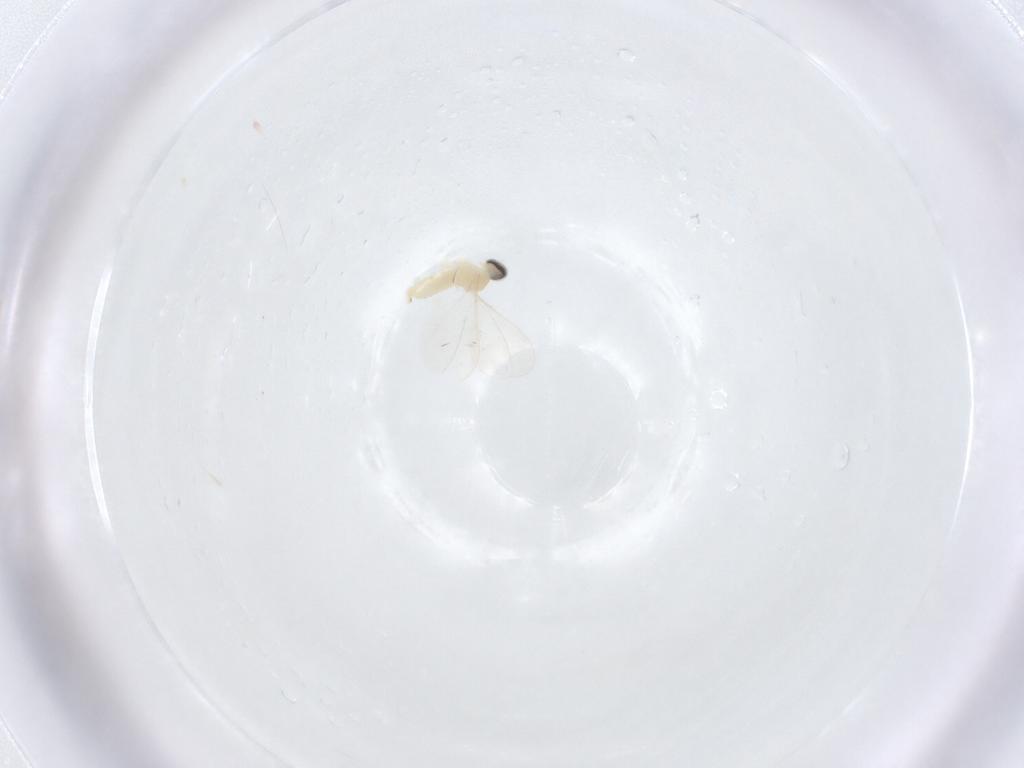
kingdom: Animalia
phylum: Arthropoda
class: Insecta
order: Diptera
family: Cecidomyiidae
